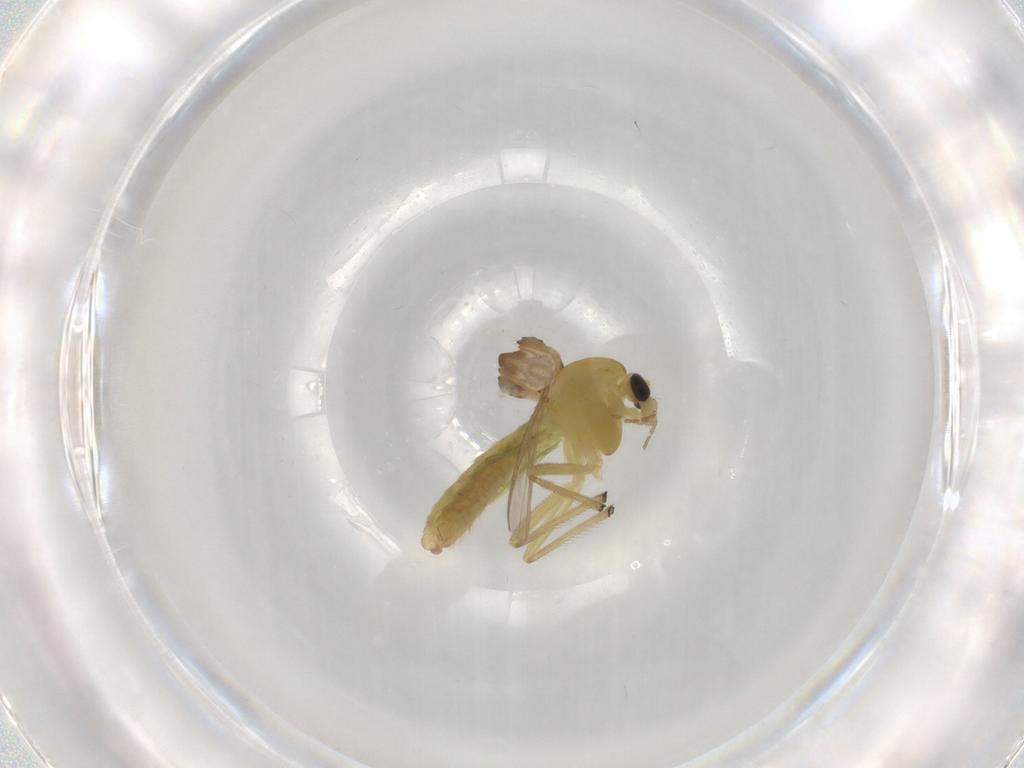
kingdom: Animalia
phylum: Arthropoda
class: Insecta
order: Diptera
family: Chironomidae
